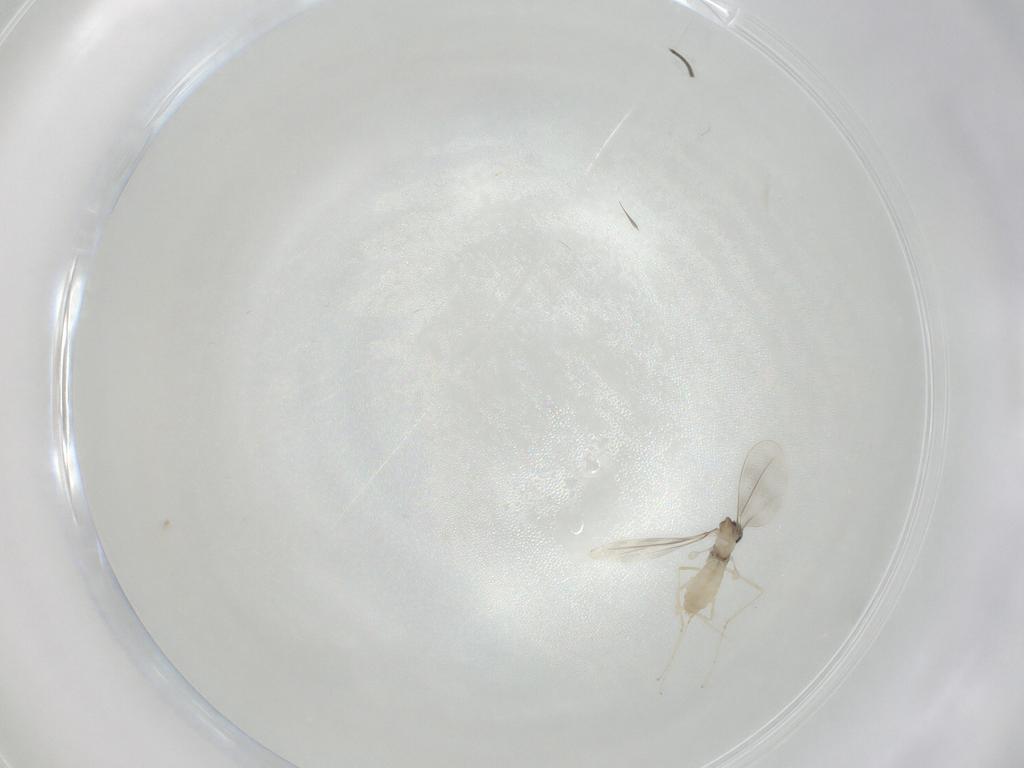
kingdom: Animalia
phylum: Arthropoda
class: Insecta
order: Diptera
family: Cecidomyiidae
